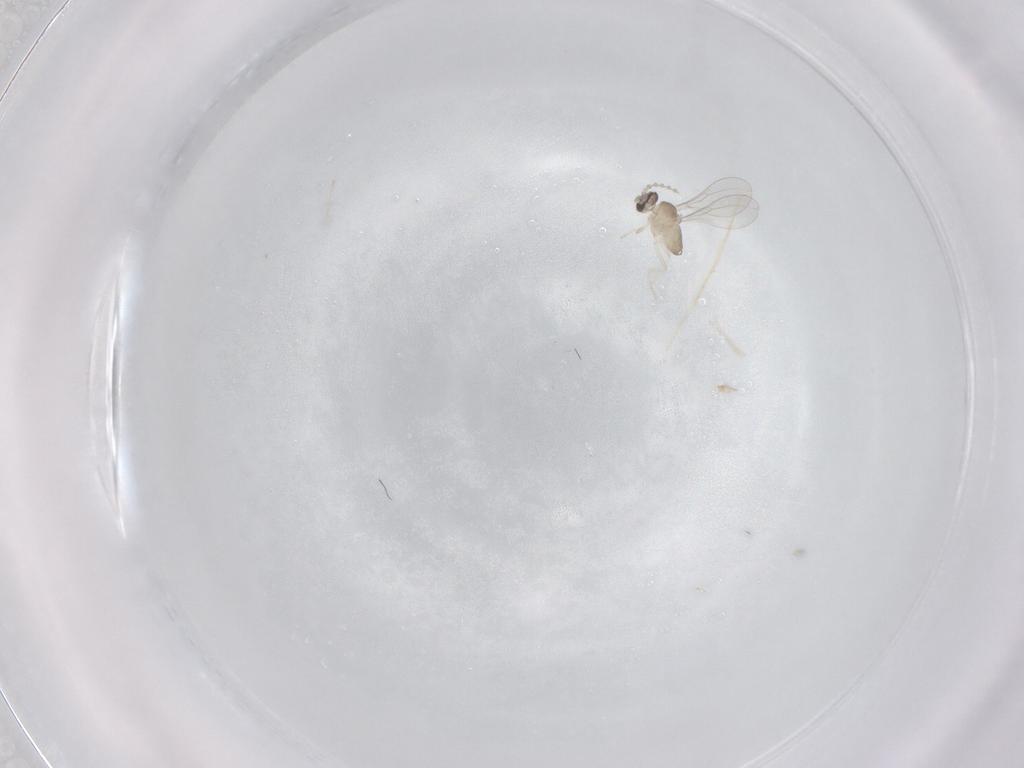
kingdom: Animalia
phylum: Arthropoda
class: Insecta
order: Diptera
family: Cecidomyiidae
